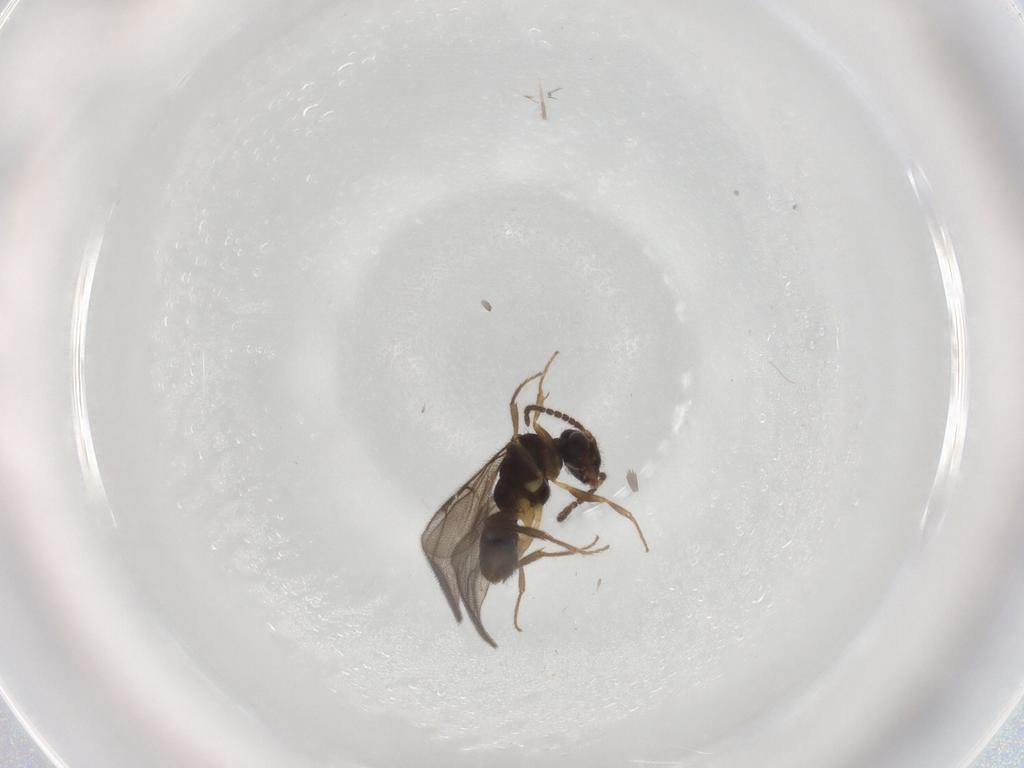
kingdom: Animalia
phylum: Arthropoda
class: Insecta
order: Hymenoptera
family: Bethylidae
